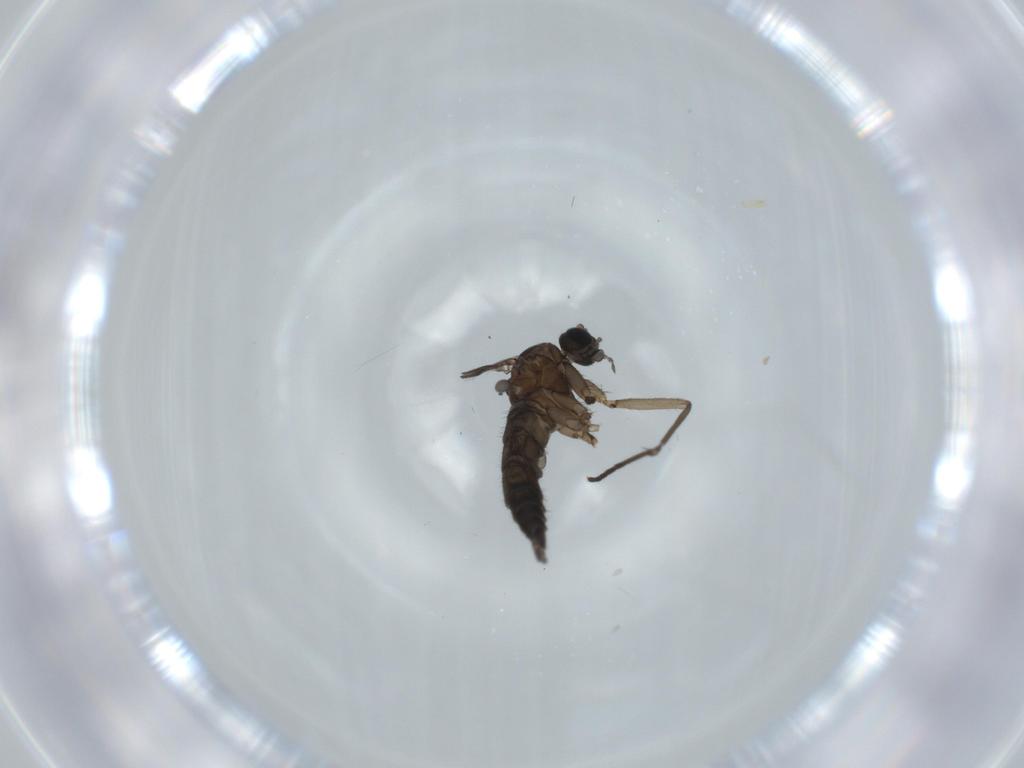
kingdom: Animalia
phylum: Arthropoda
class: Insecta
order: Diptera
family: Sciaridae
